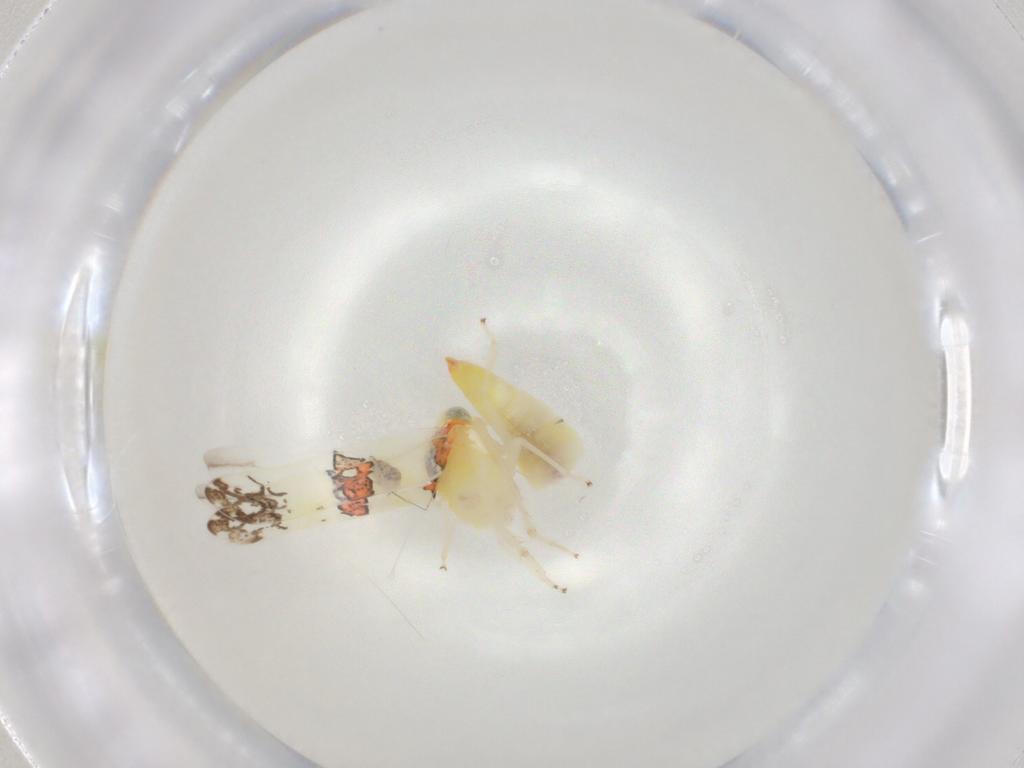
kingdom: Animalia
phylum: Arthropoda
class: Insecta
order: Hemiptera
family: Cicadellidae
